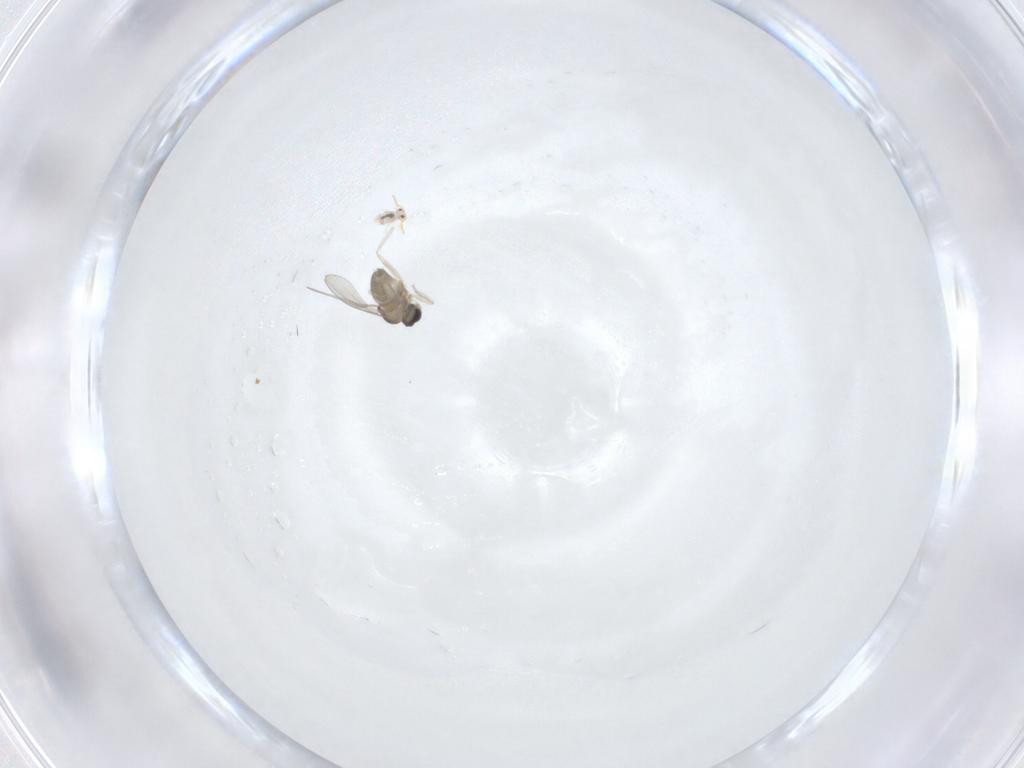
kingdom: Animalia
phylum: Arthropoda
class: Insecta
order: Diptera
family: Cecidomyiidae
